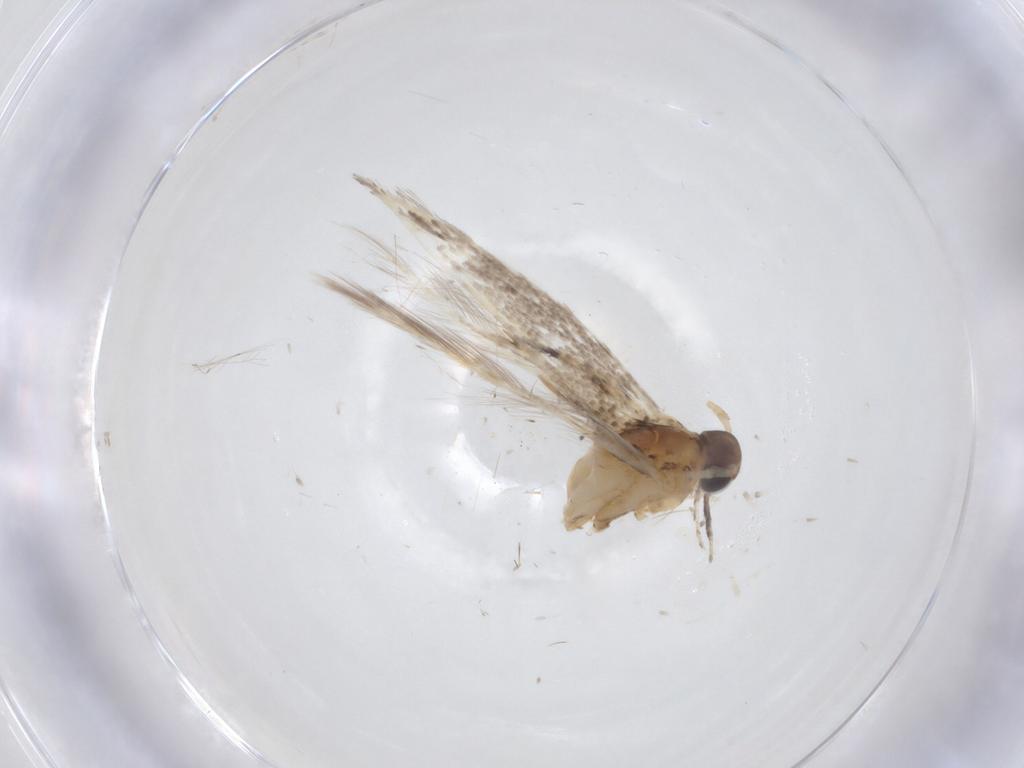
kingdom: Animalia
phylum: Arthropoda
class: Insecta
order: Lepidoptera
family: Gelechiidae
